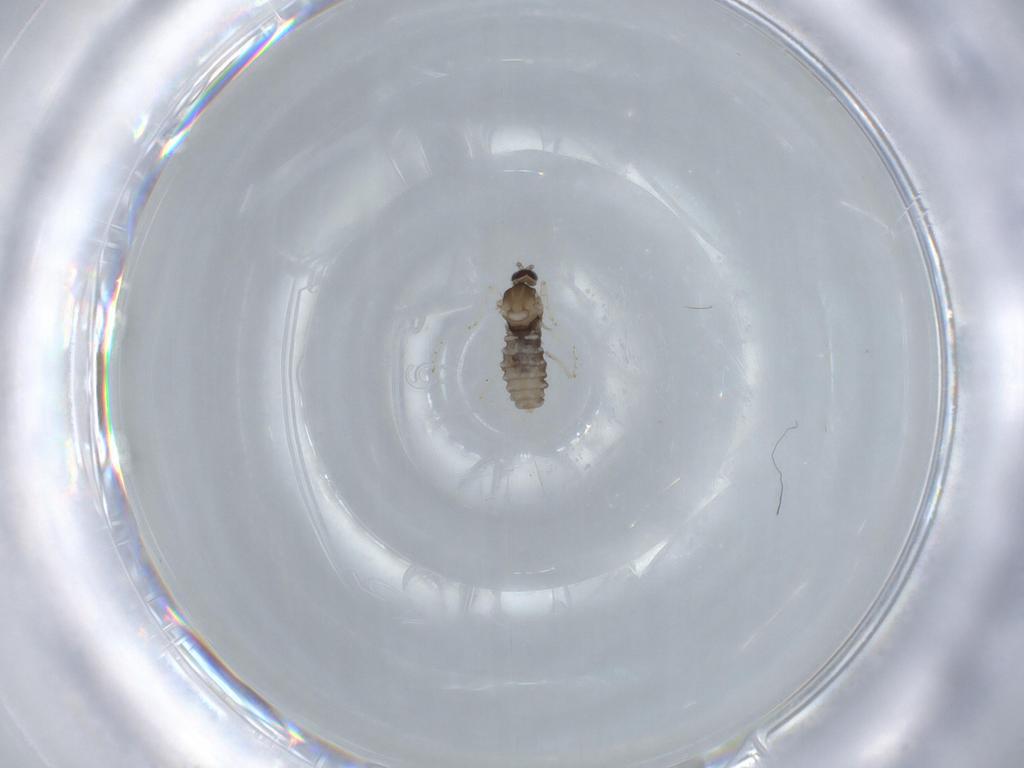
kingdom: Animalia
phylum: Arthropoda
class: Insecta
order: Diptera
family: Cecidomyiidae
